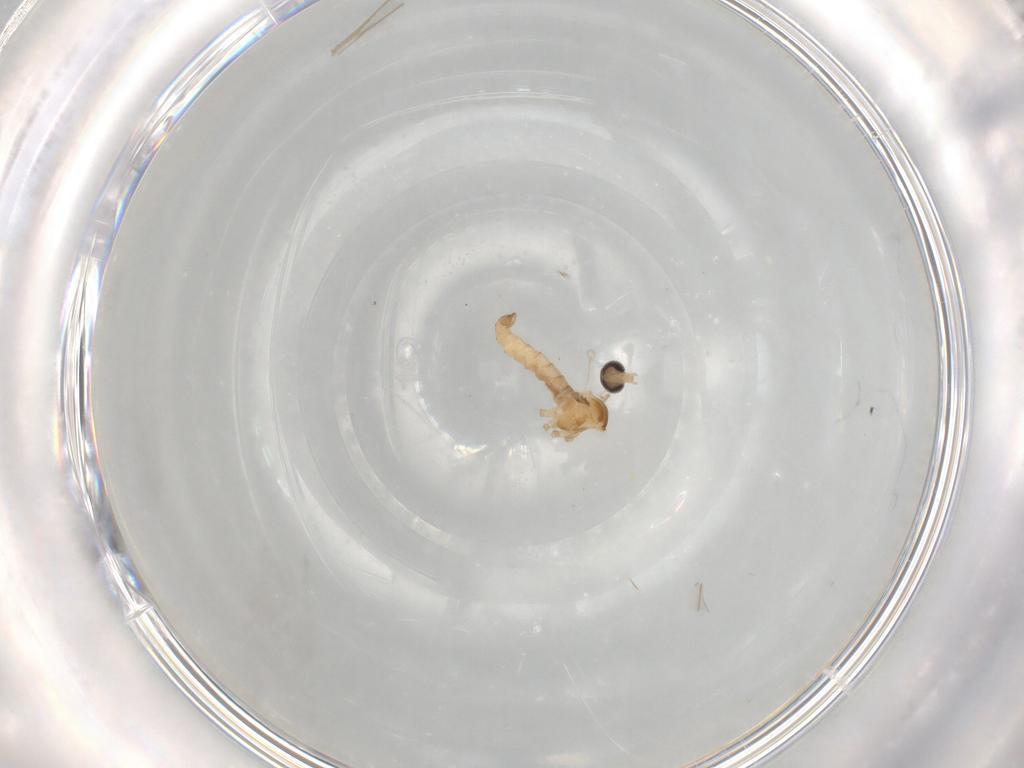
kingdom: Animalia
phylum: Arthropoda
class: Insecta
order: Diptera
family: Cecidomyiidae
